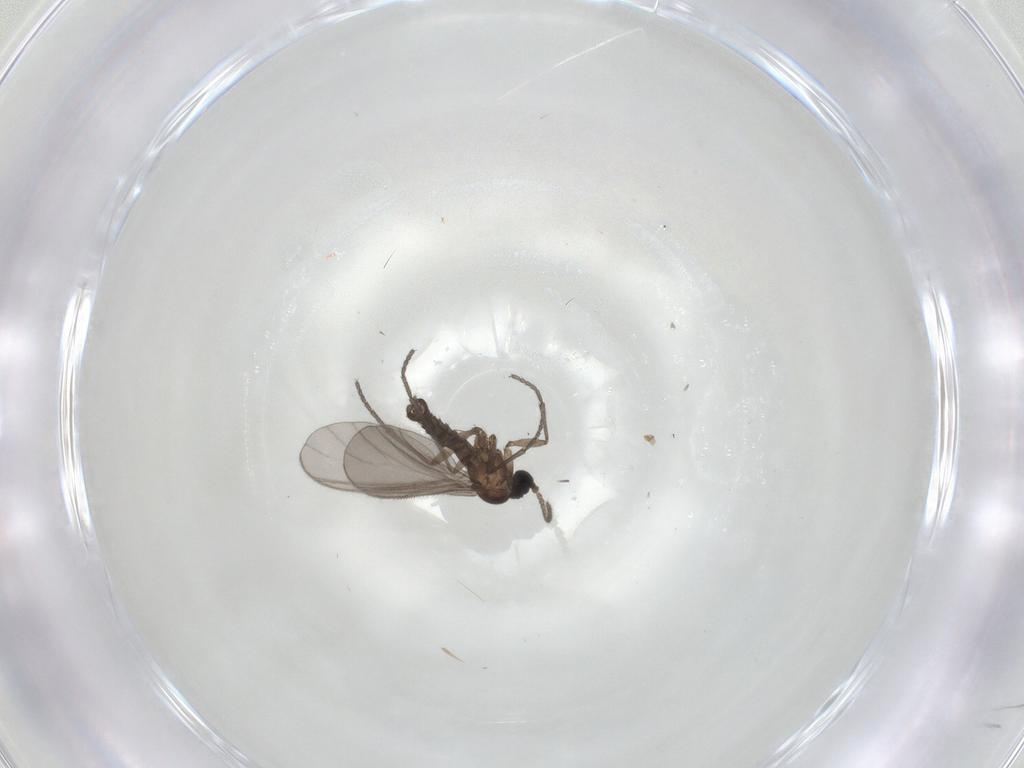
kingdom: Animalia
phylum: Arthropoda
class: Insecta
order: Diptera
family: Sciaridae
